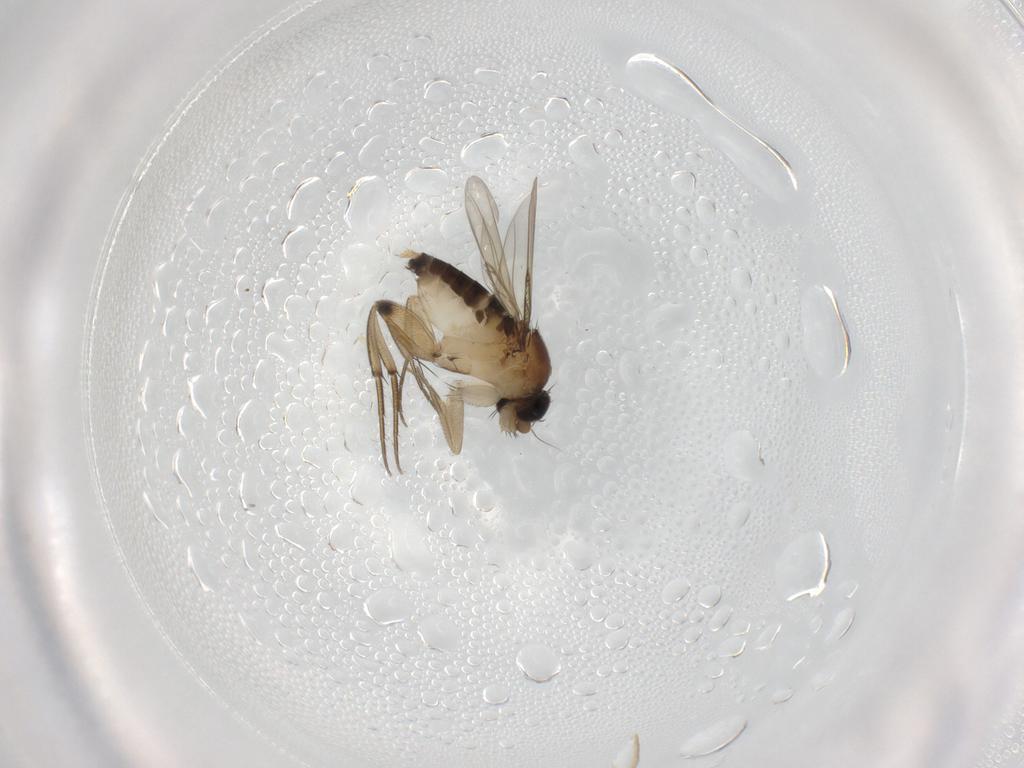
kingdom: Animalia
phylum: Arthropoda
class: Insecta
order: Diptera
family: Phoridae
